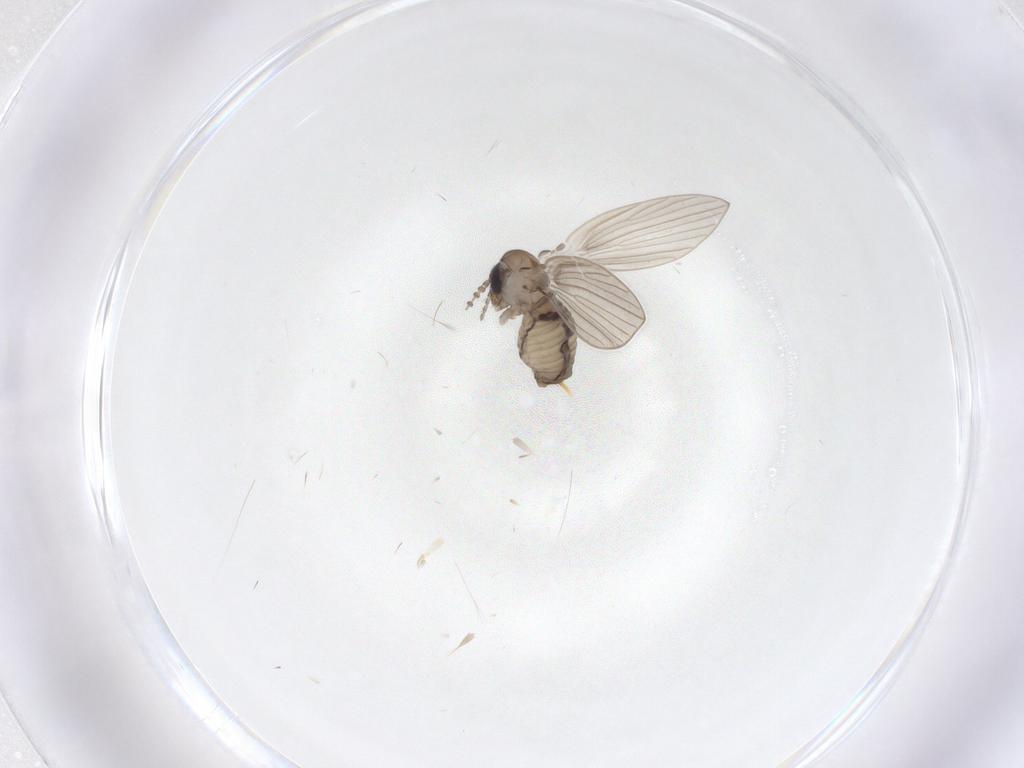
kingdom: Animalia
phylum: Arthropoda
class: Insecta
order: Diptera
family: Psychodidae
